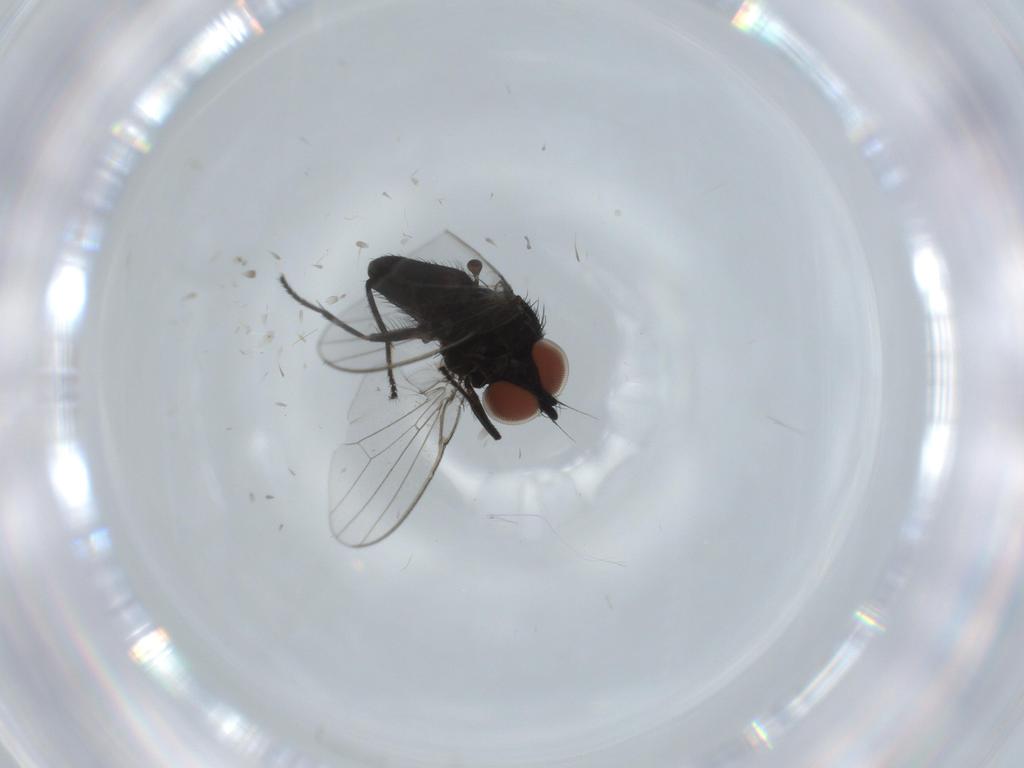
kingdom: Animalia
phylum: Arthropoda
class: Insecta
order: Diptera
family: Milichiidae
